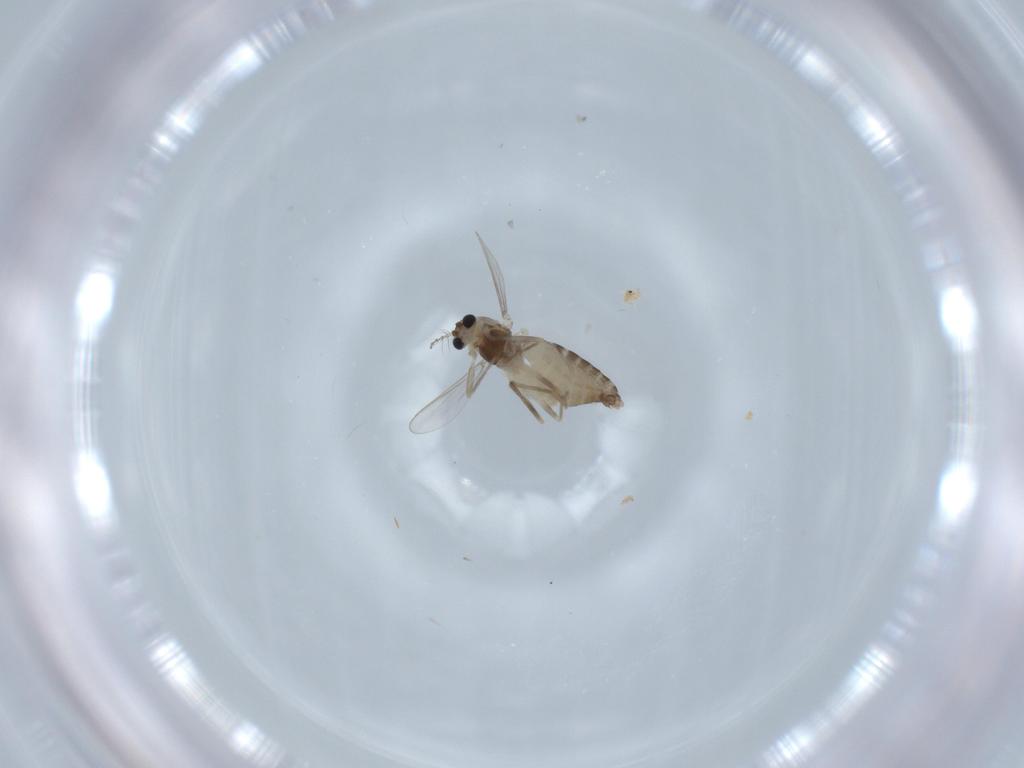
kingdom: Animalia
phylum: Arthropoda
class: Insecta
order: Diptera
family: Chironomidae
